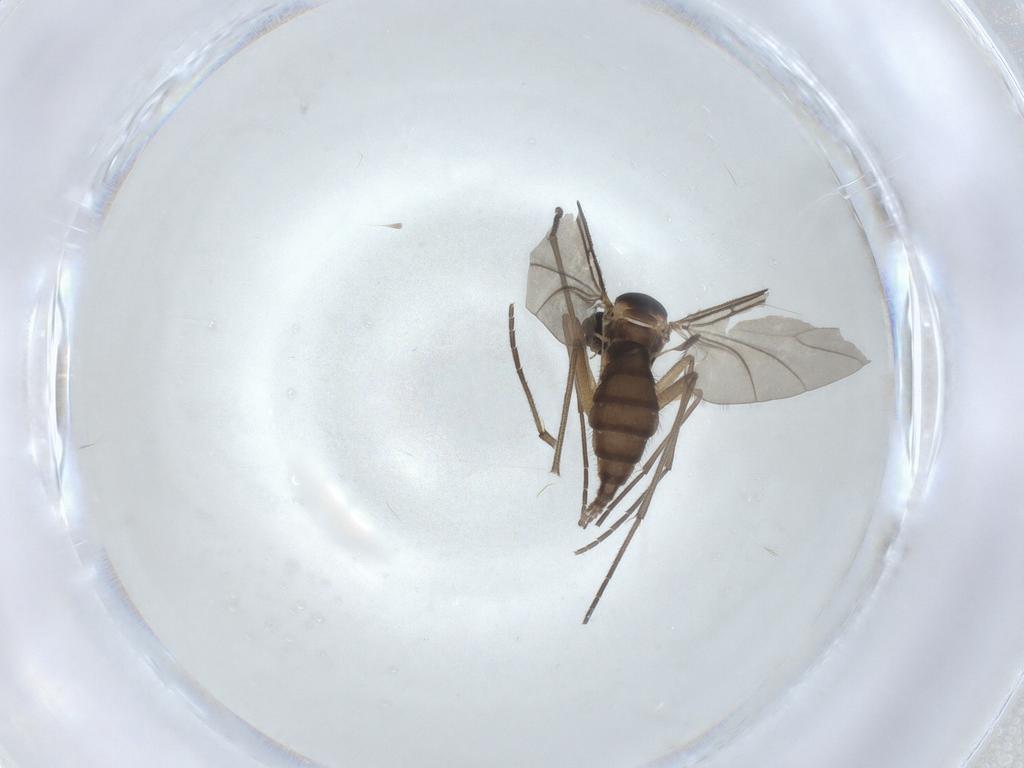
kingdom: Animalia
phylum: Arthropoda
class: Insecta
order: Diptera
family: Sciaridae
